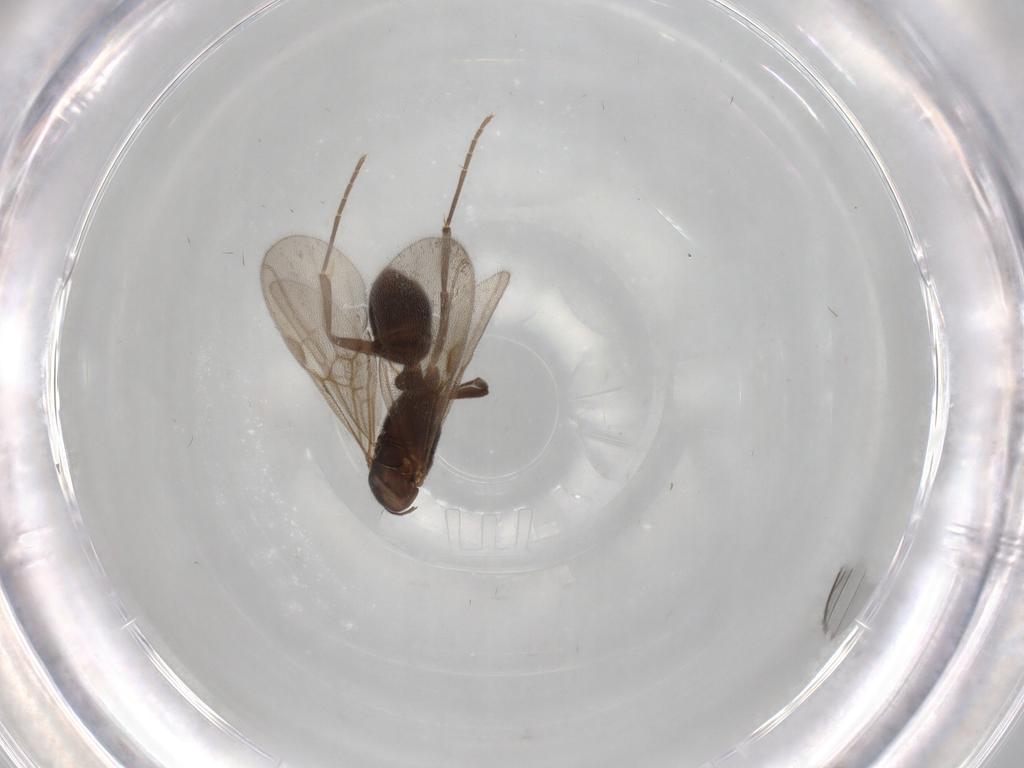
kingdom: Animalia
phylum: Arthropoda
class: Insecta
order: Hymenoptera
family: Formicidae
